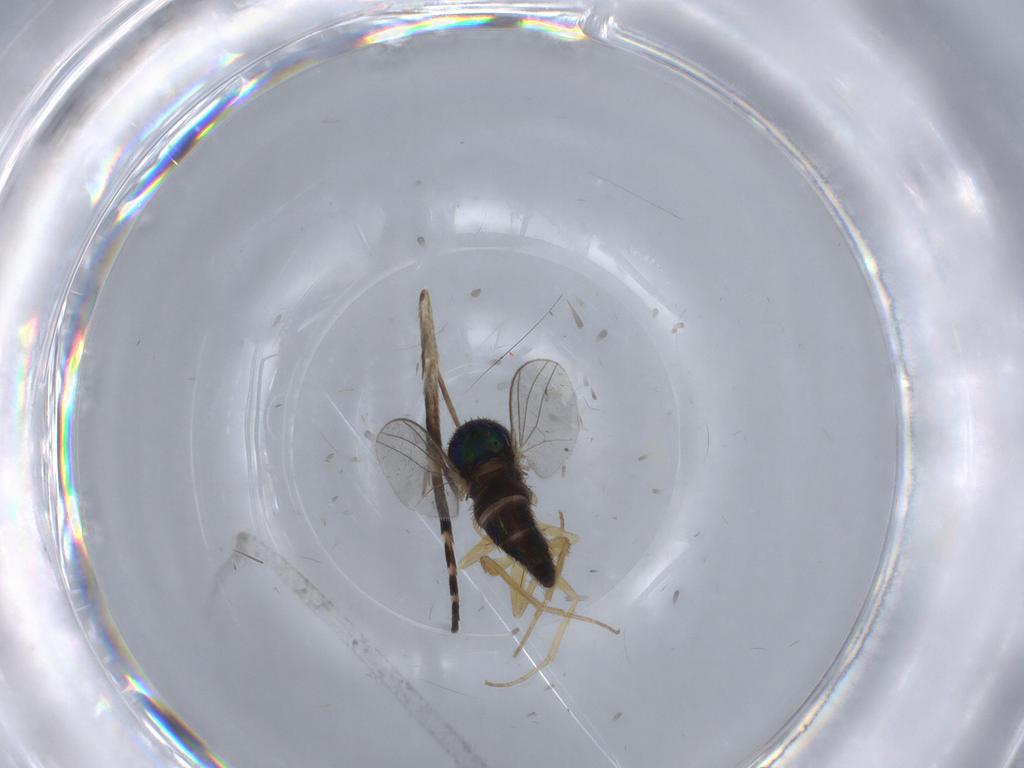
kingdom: Animalia
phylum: Arthropoda
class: Insecta
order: Diptera
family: Dolichopodidae
